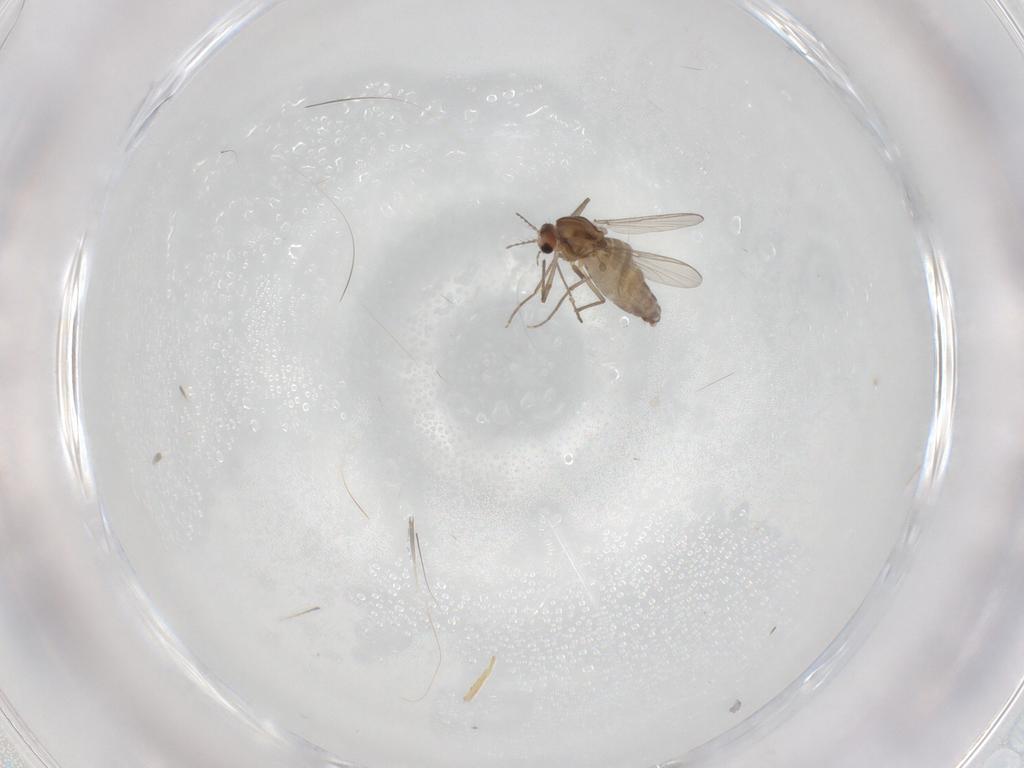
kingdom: Animalia
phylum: Arthropoda
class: Insecta
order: Diptera
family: Chironomidae
